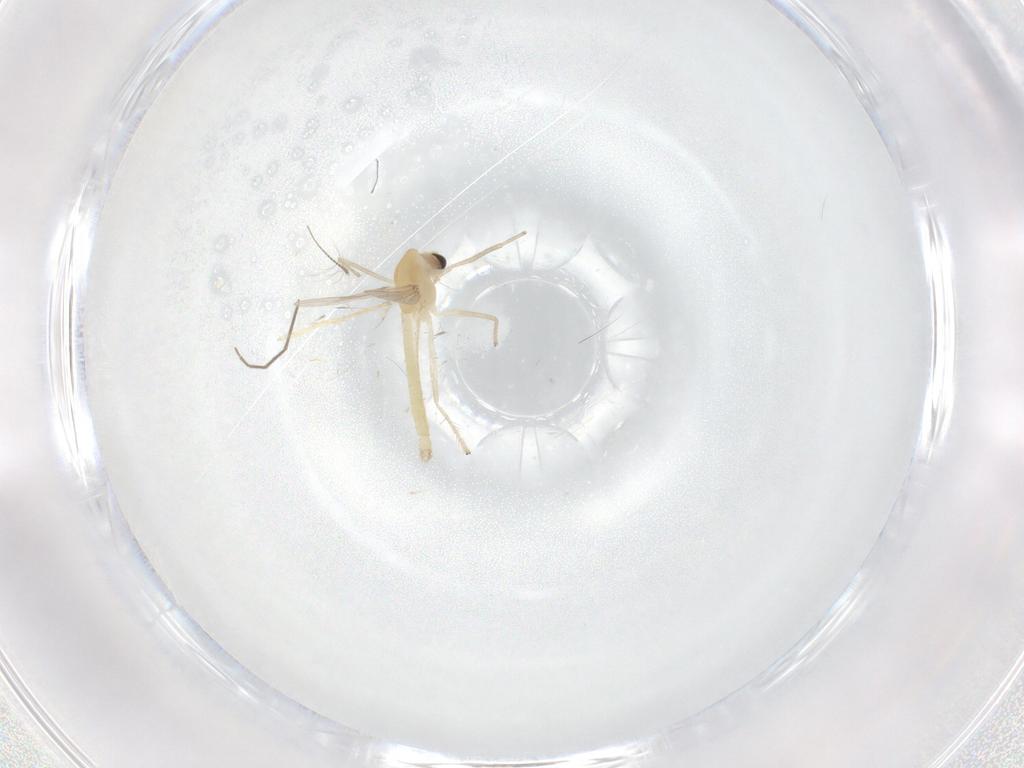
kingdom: Animalia
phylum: Arthropoda
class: Insecta
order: Diptera
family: Chironomidae
